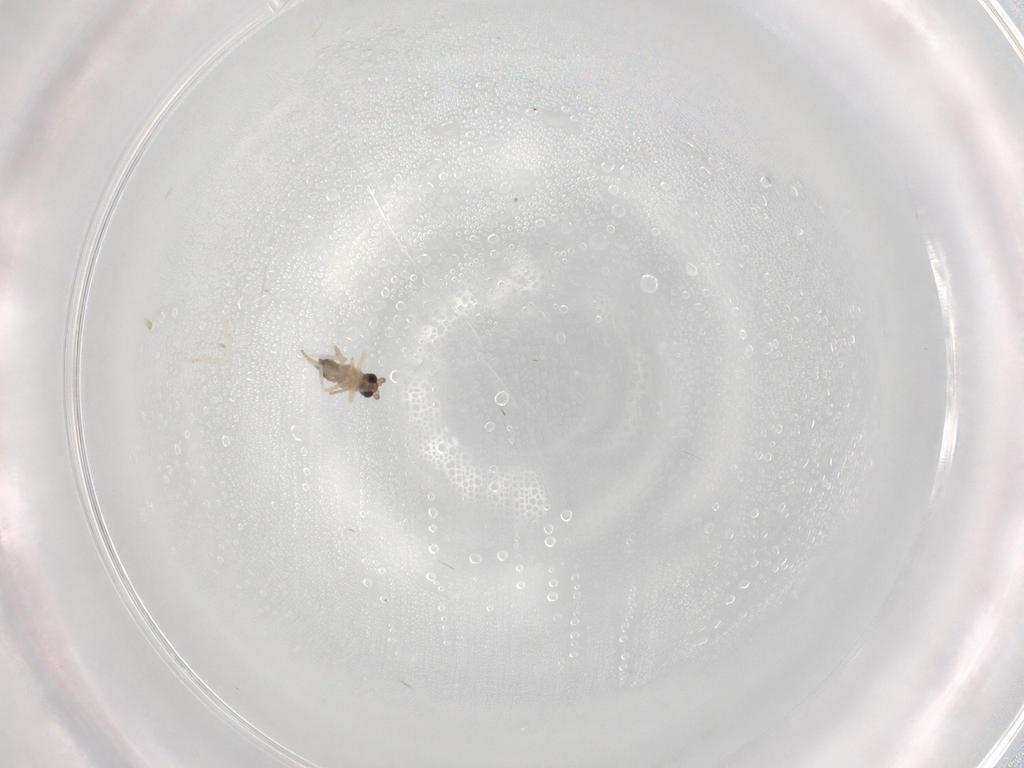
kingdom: Animalia
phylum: Arthropoda
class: Insecta
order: Diptera
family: Cecidomyiidae
